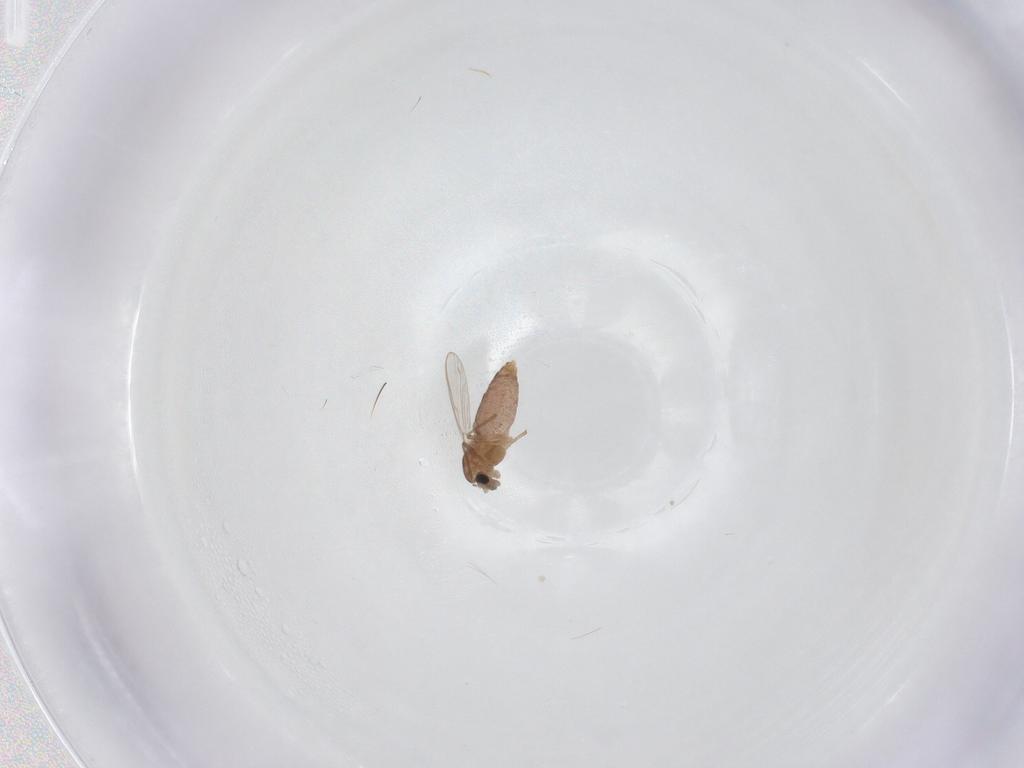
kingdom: Animalia
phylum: Arthropoda
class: Insecta
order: Diptera
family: Chironomidae
